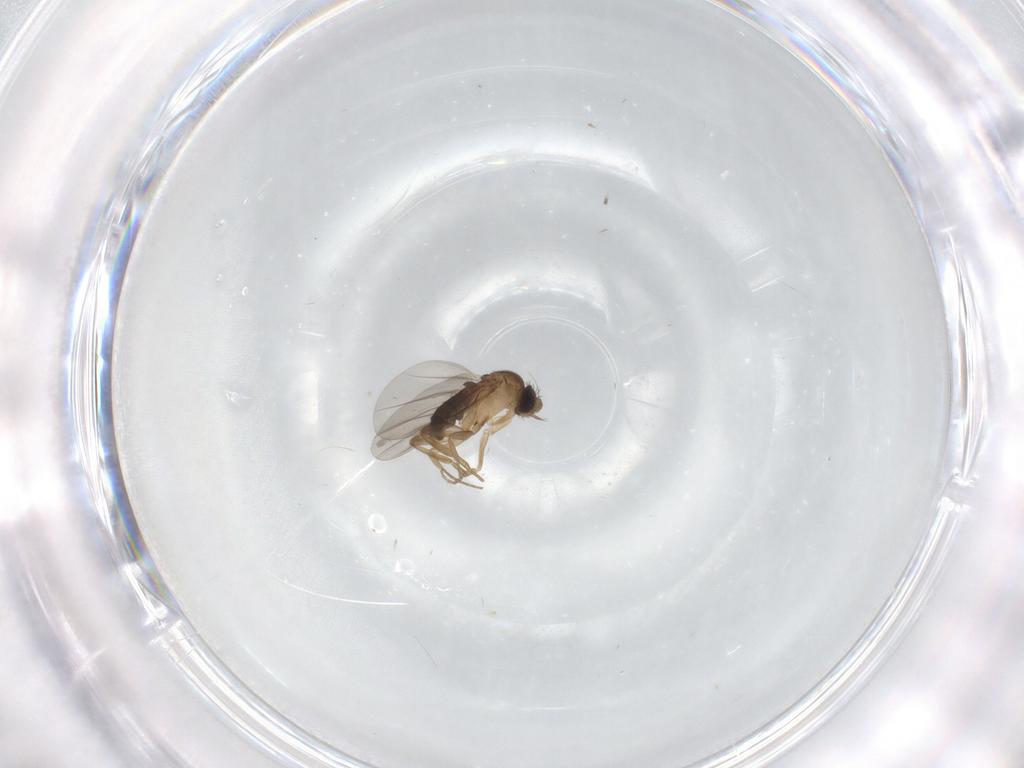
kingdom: Animalia
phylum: Arthropoda
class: Insecta
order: Diptera
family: Phoridae
